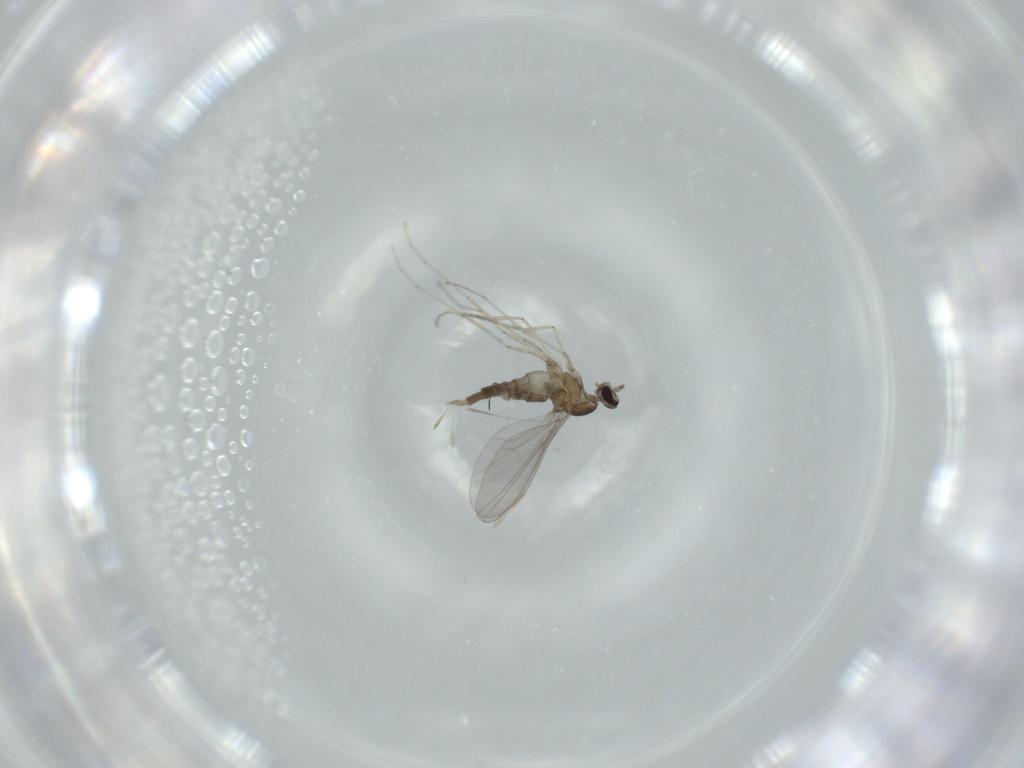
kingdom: Animalia
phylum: Arthropoda
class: Insecta
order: Diptera
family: Cecidomyiidae
